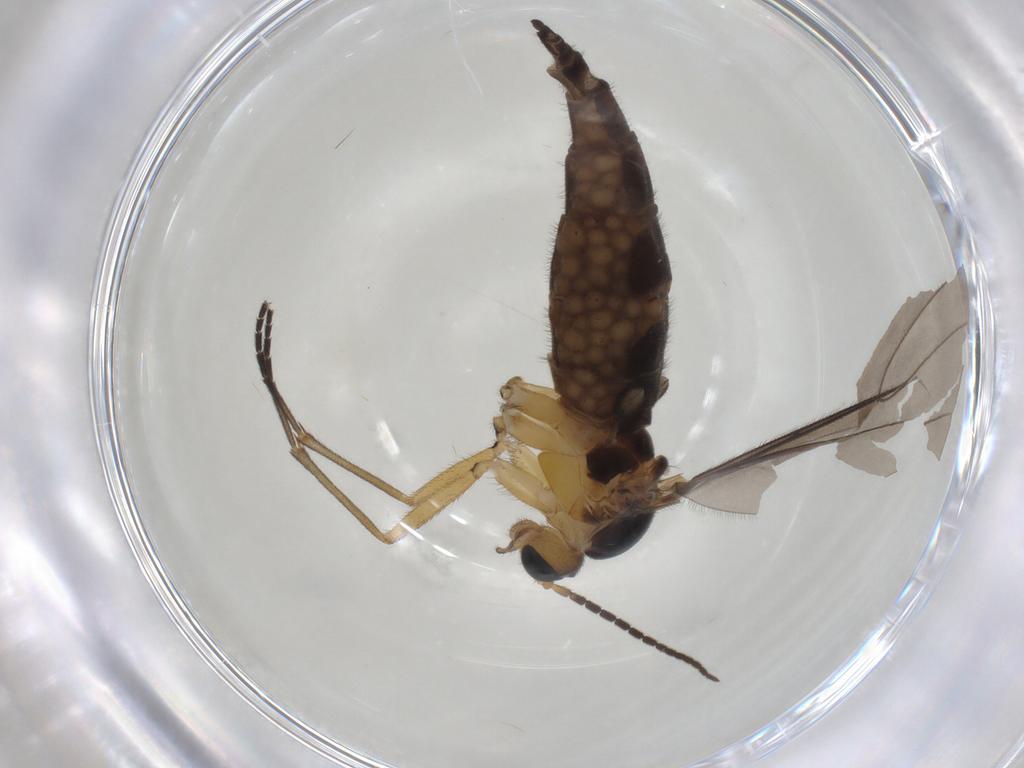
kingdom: Animalia
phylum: Arthropoda
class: Insecta
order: Diptera
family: Sciaridae
